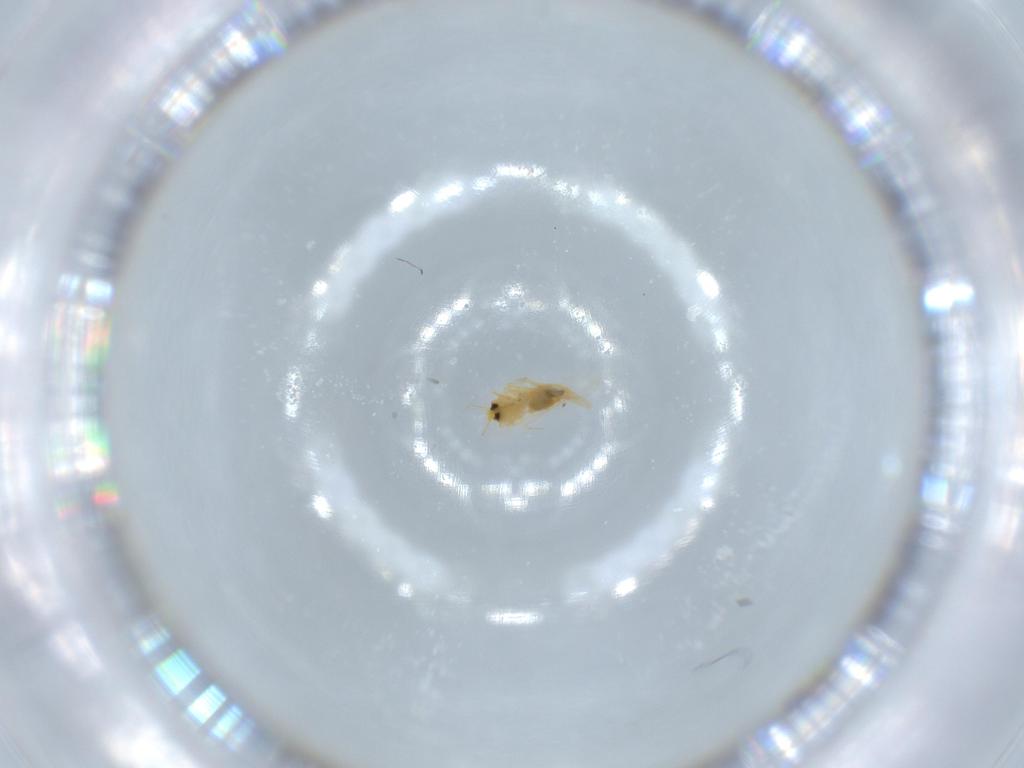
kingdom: Animalia
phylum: Arthropoda
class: Insecta
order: Hemiptera
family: Aleyrodidae
